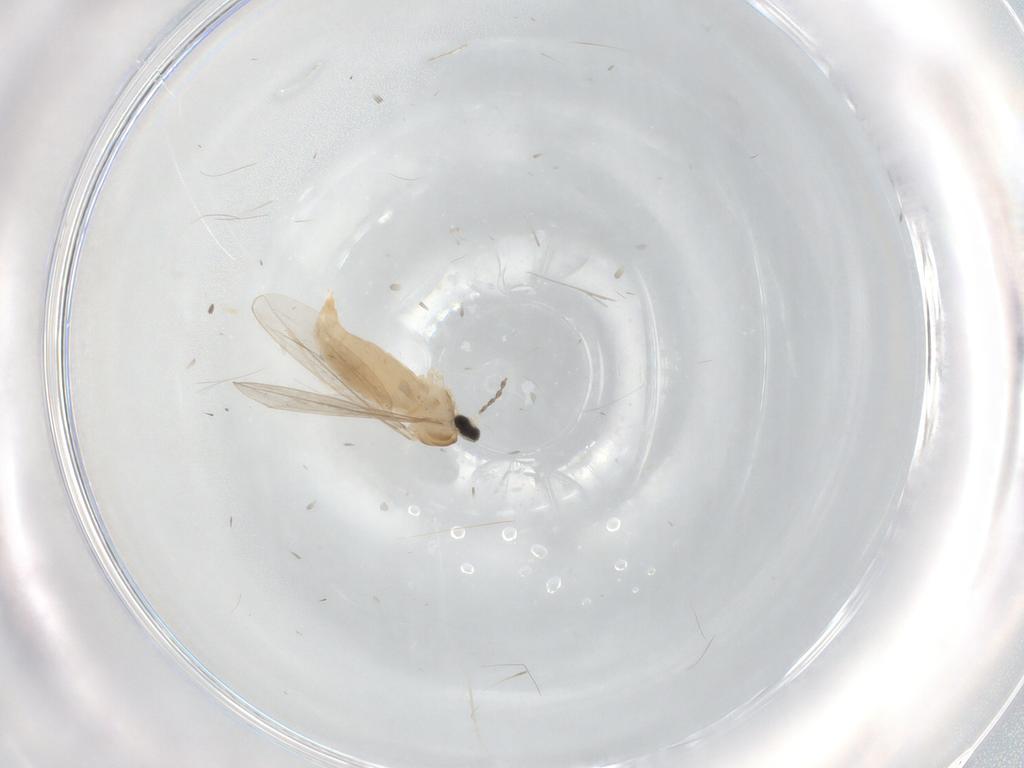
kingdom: Animalia
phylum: Arthropoda
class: Insecta
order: Diptera
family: Cecidomyiidae
